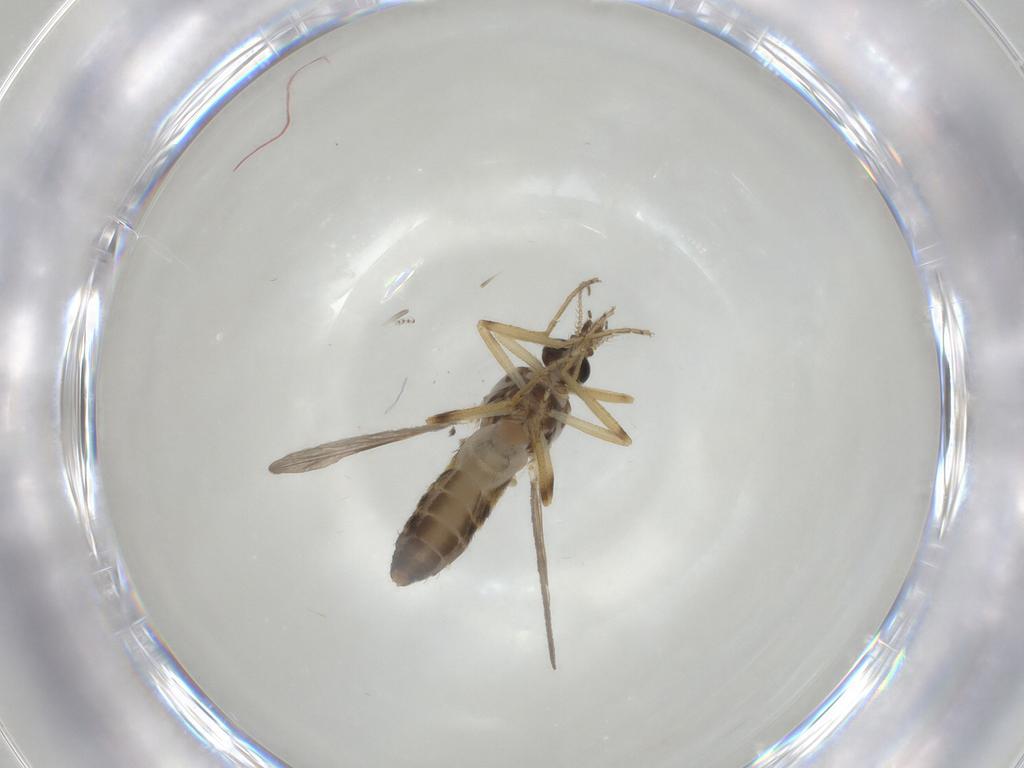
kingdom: Animalia
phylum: Arthropoda
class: Insecta
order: Diptera
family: Ceratopogonidae
